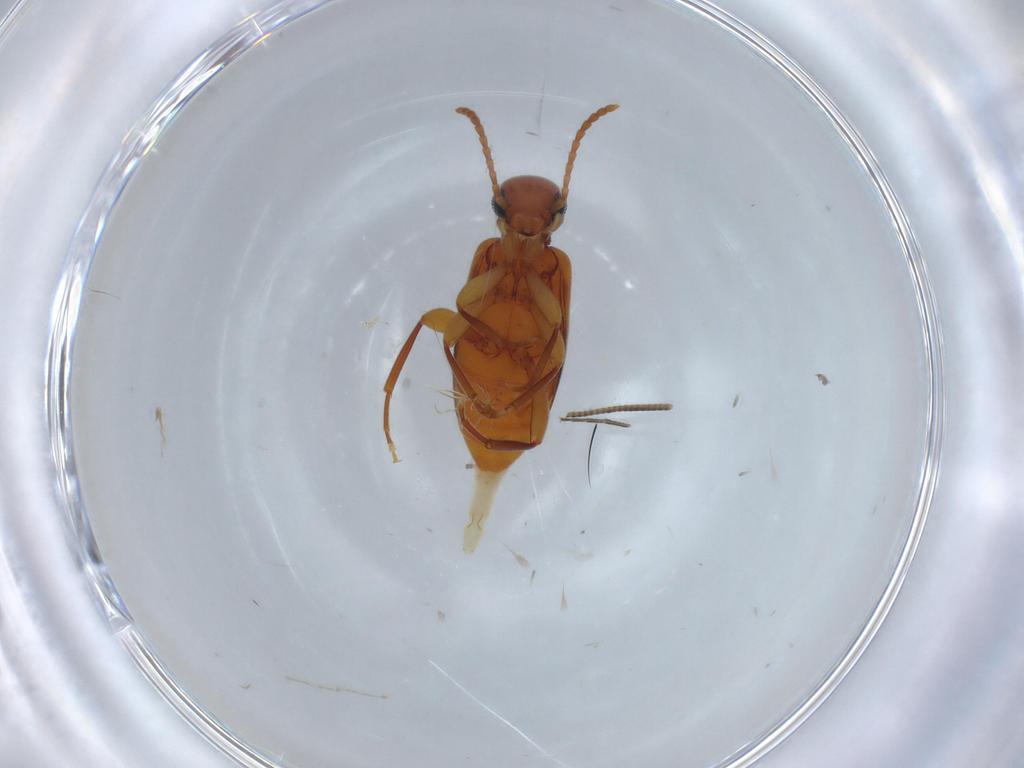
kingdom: Animalia
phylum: Arthropoda
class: Insecta
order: Coleoptera
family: Anthicidae
